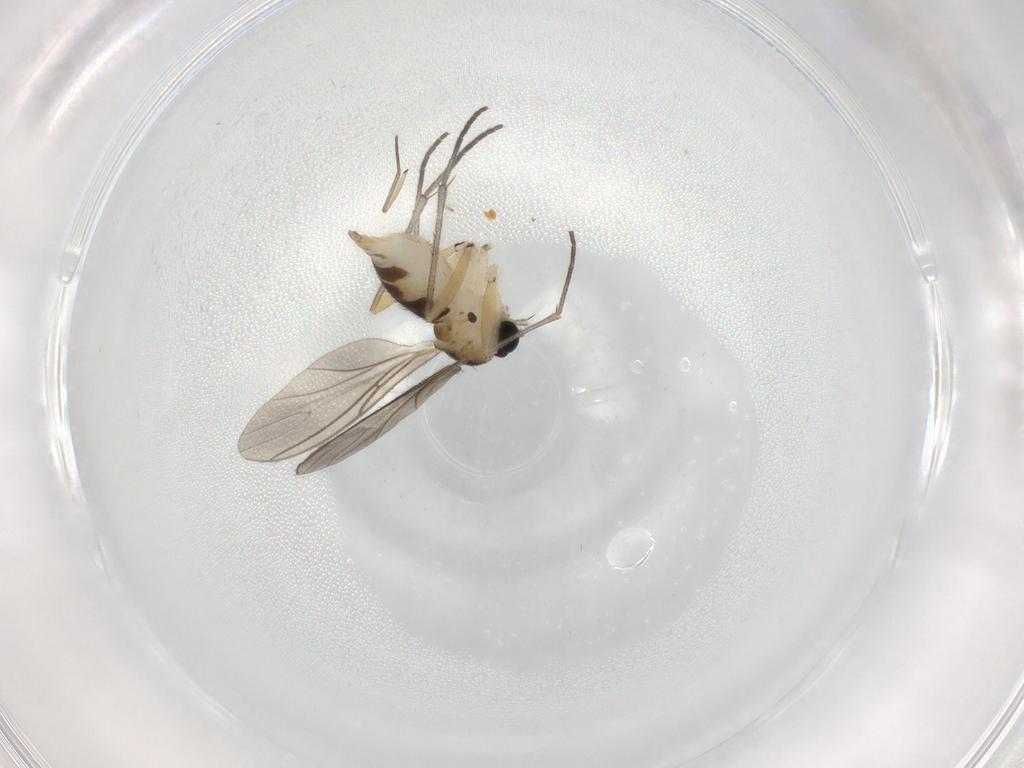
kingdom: Animalia
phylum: Arthropoda
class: Insecta
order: Diptera
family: Sciaridae
